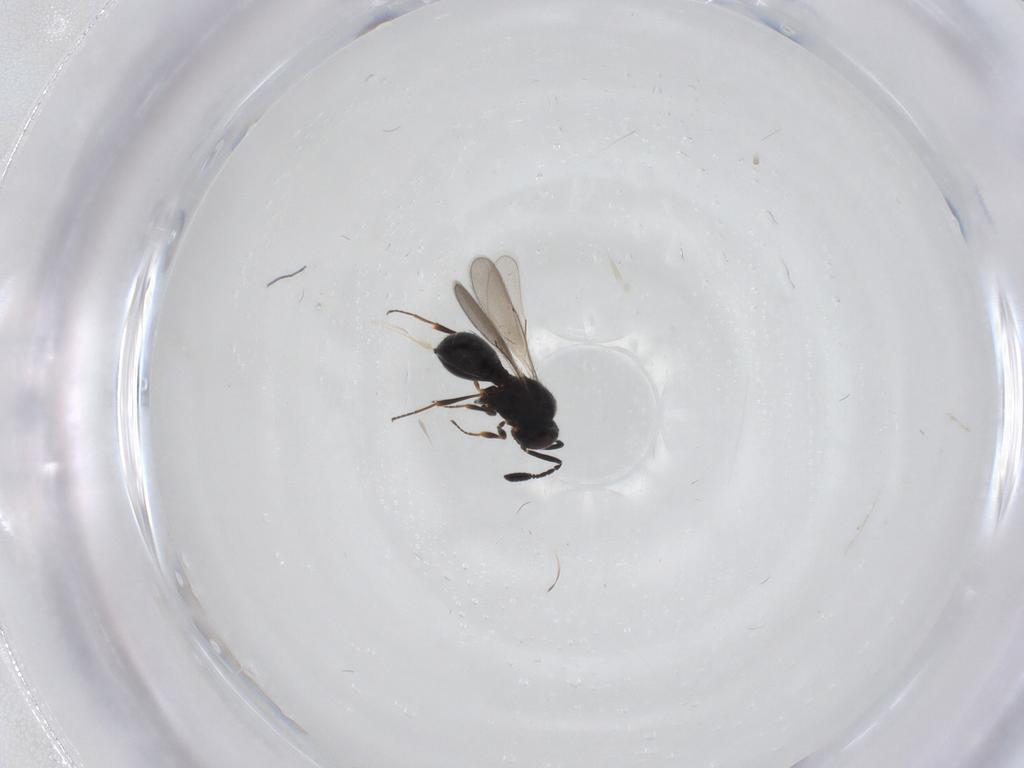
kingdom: Animalia
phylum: Arthropoda
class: Insecta
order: Hymenoptera
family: Scelionidae
